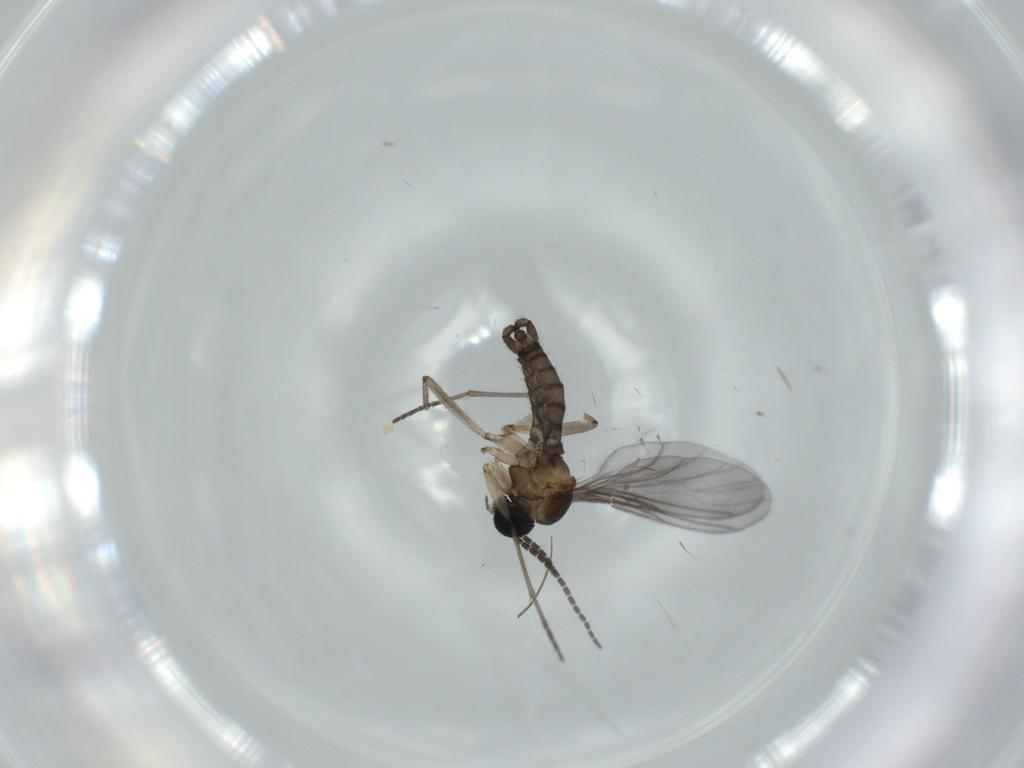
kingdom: Animalia
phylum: Arthropoda
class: Insecta
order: Diptera
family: Sciaridae
